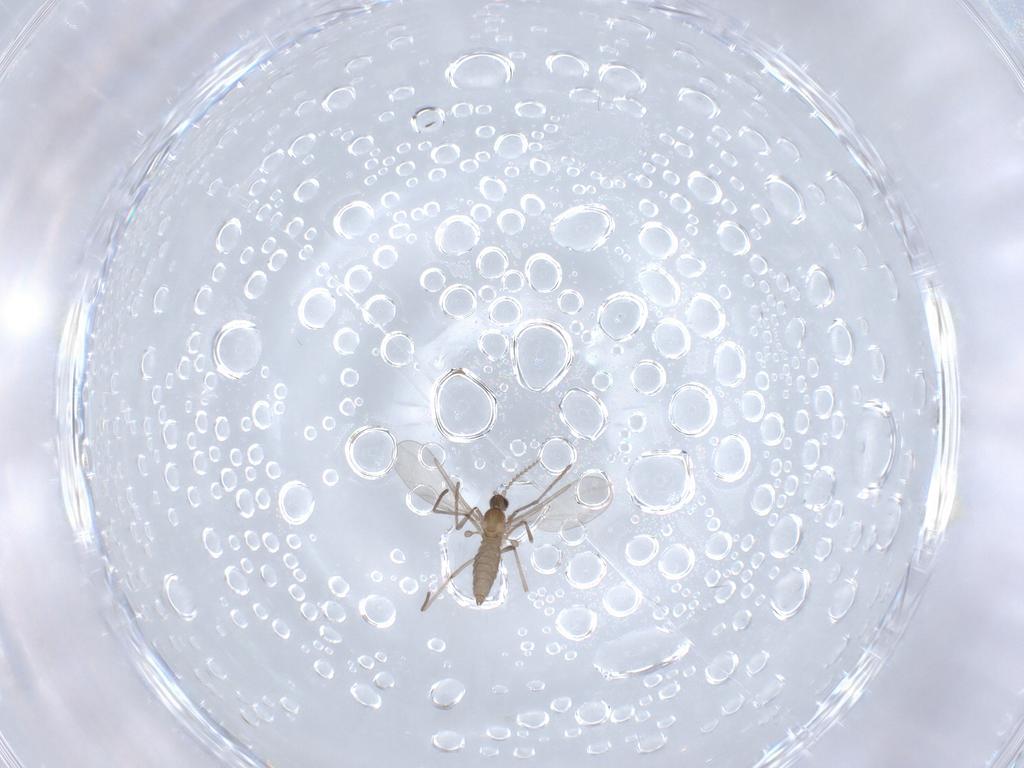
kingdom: Animalia
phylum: Arthropoda
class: Insecta
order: Diptera
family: Cecidomyiidae
